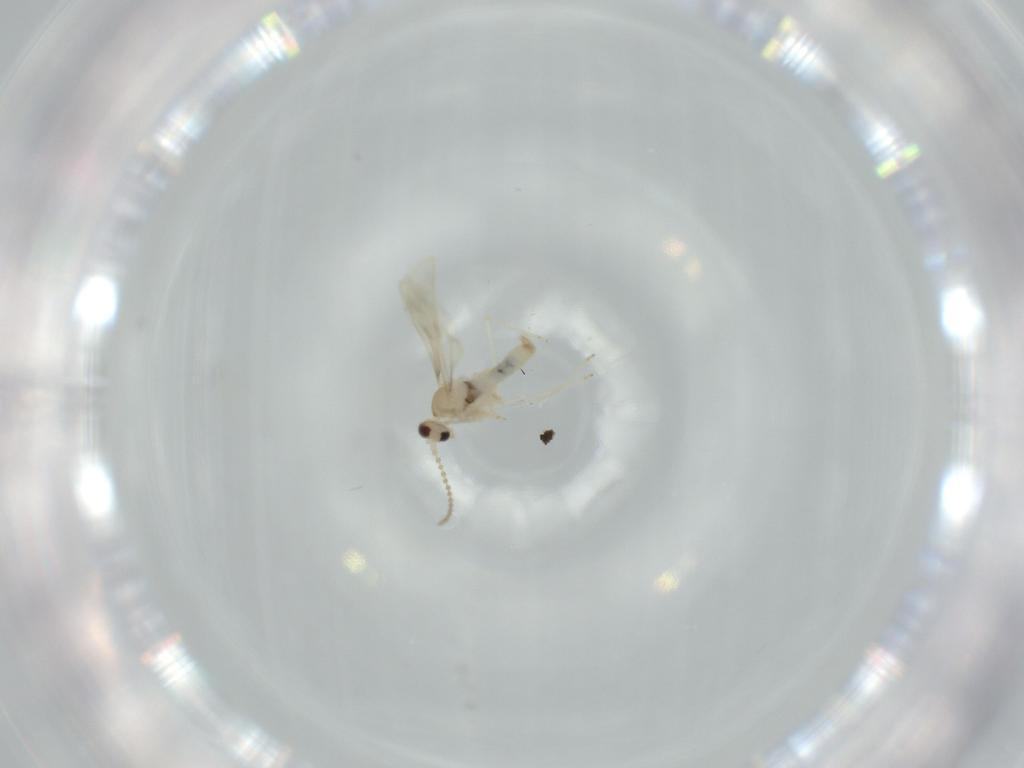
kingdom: Animalia
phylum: Arthropoda
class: Insecta
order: Diptera
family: Cecidomyiidae
